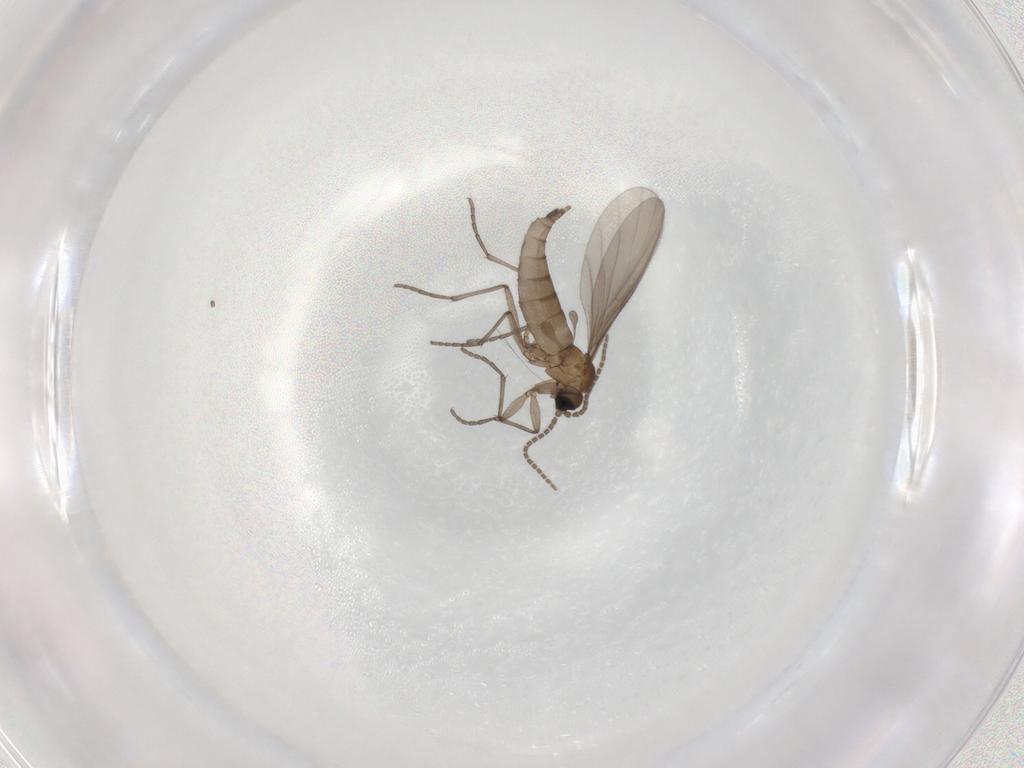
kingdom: Animalia
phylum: Arthropoda
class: Insecta
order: Diptera
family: Sciaridae
